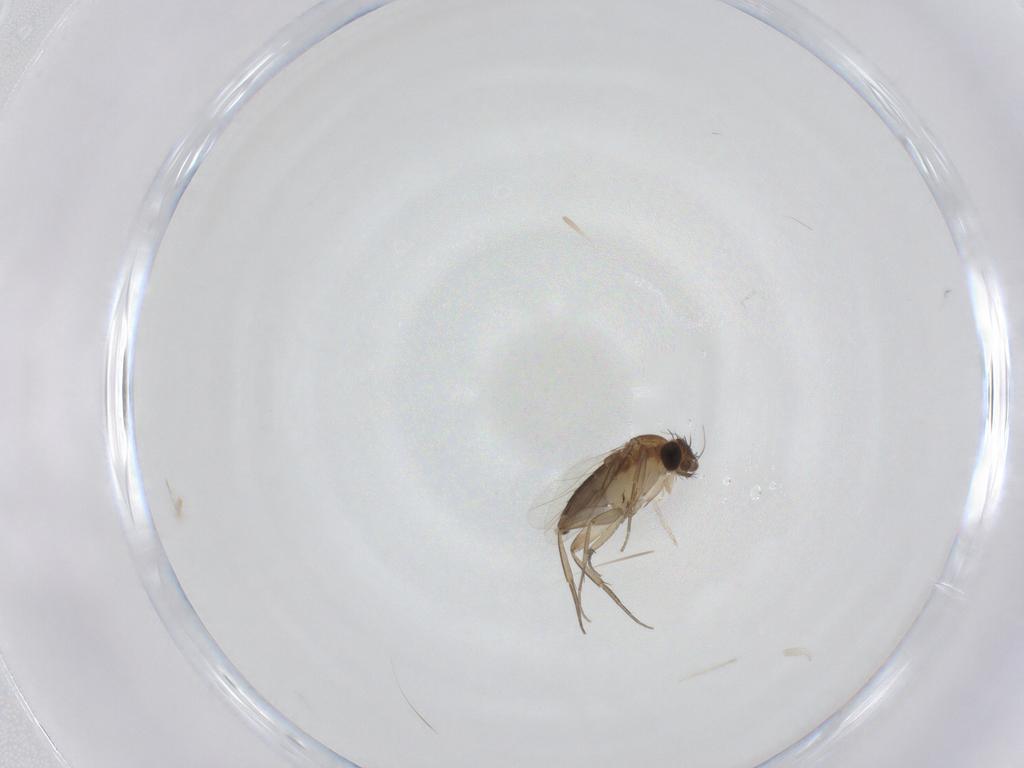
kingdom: Animalia
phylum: Arthropoda
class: Insecta
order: Diptera
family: Phoridae
